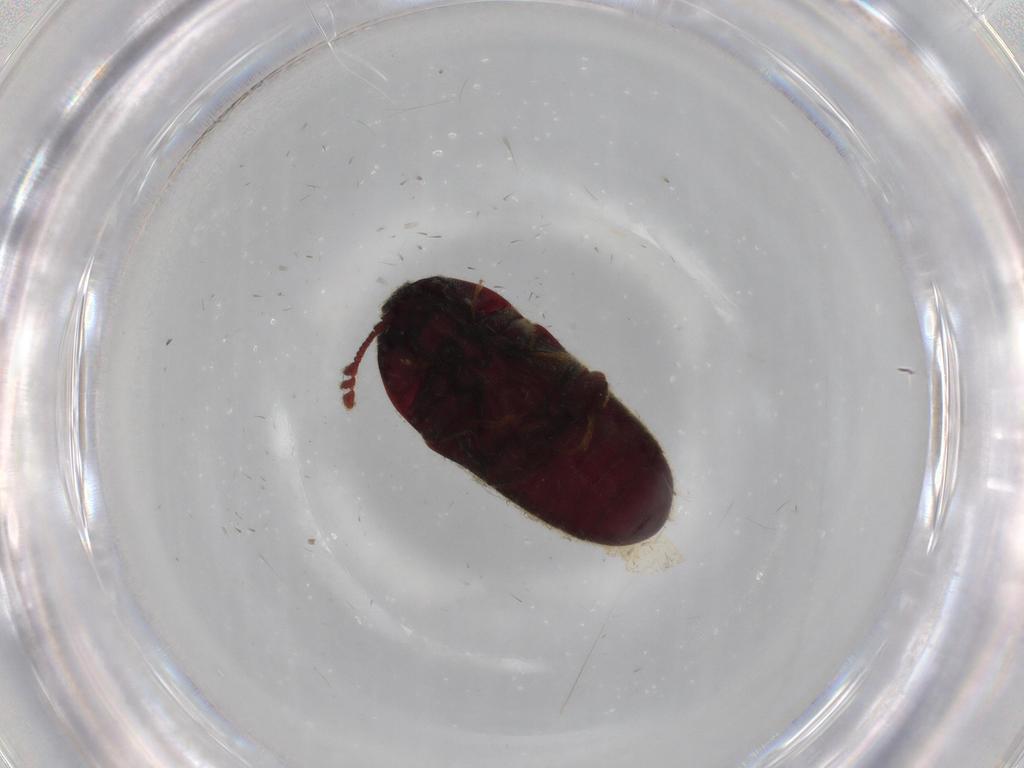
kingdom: Animalia
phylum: Arthropoda
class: Insecta
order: Coleoptera
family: Throscidae
